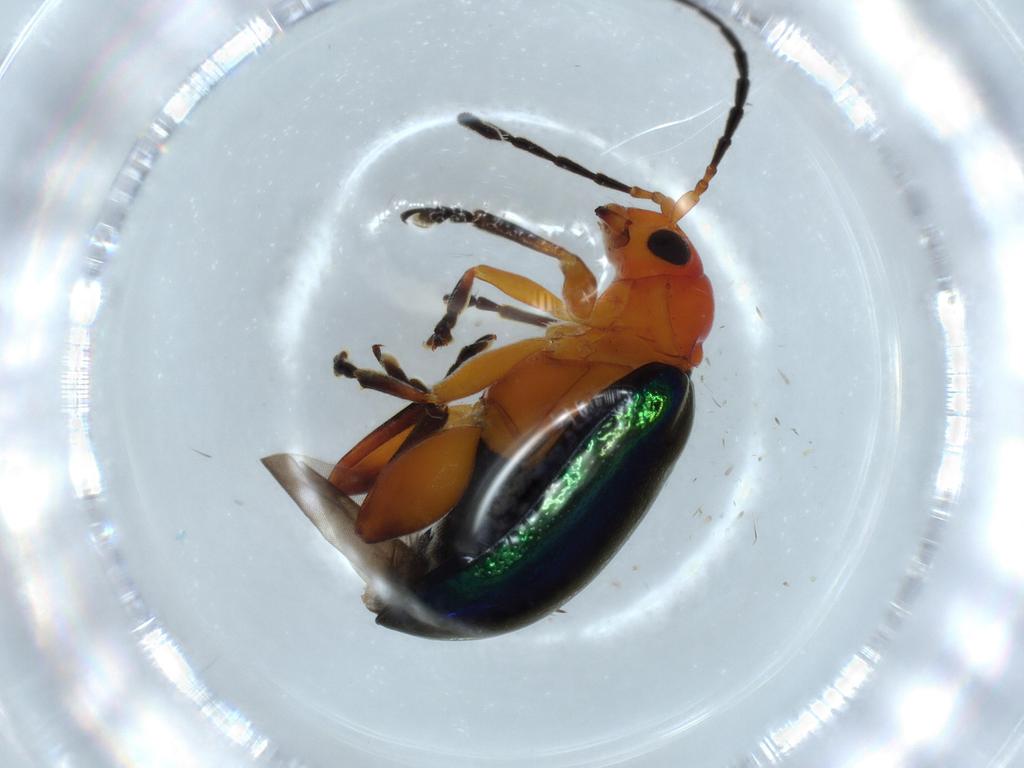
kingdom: Animalia
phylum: Arthropoda
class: Insecta
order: Coleoptera
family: Chrysomelidae
